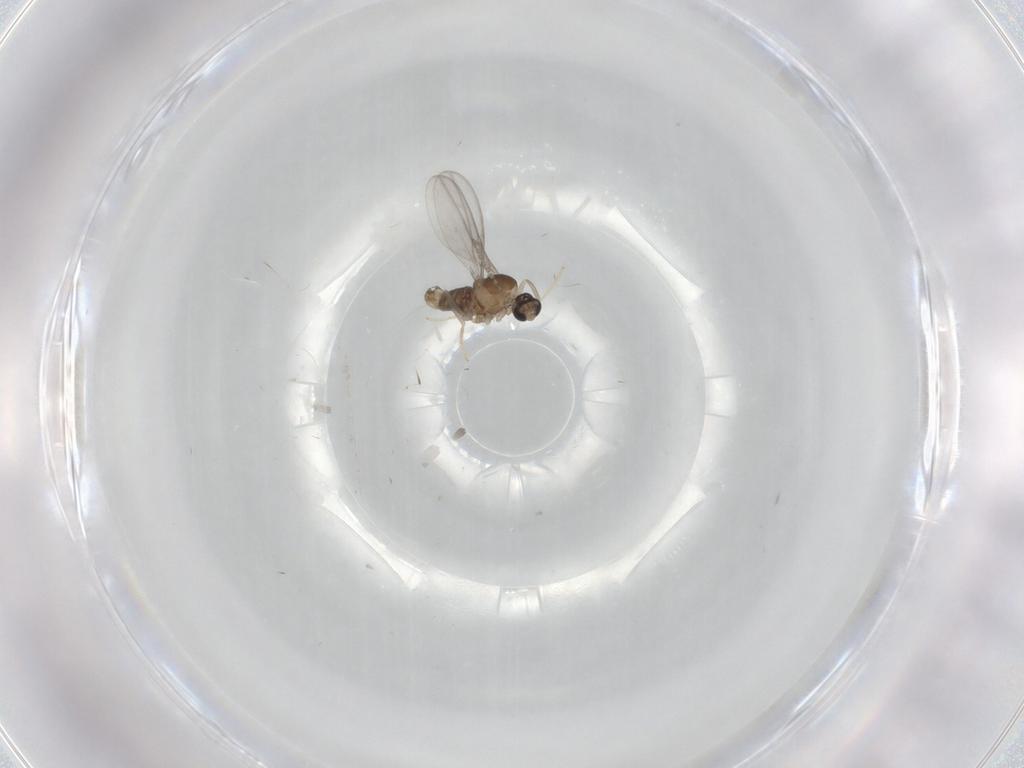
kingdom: Animalia
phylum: Arthropoda
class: Insecta
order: Diptera
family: Cecidomyiidae
